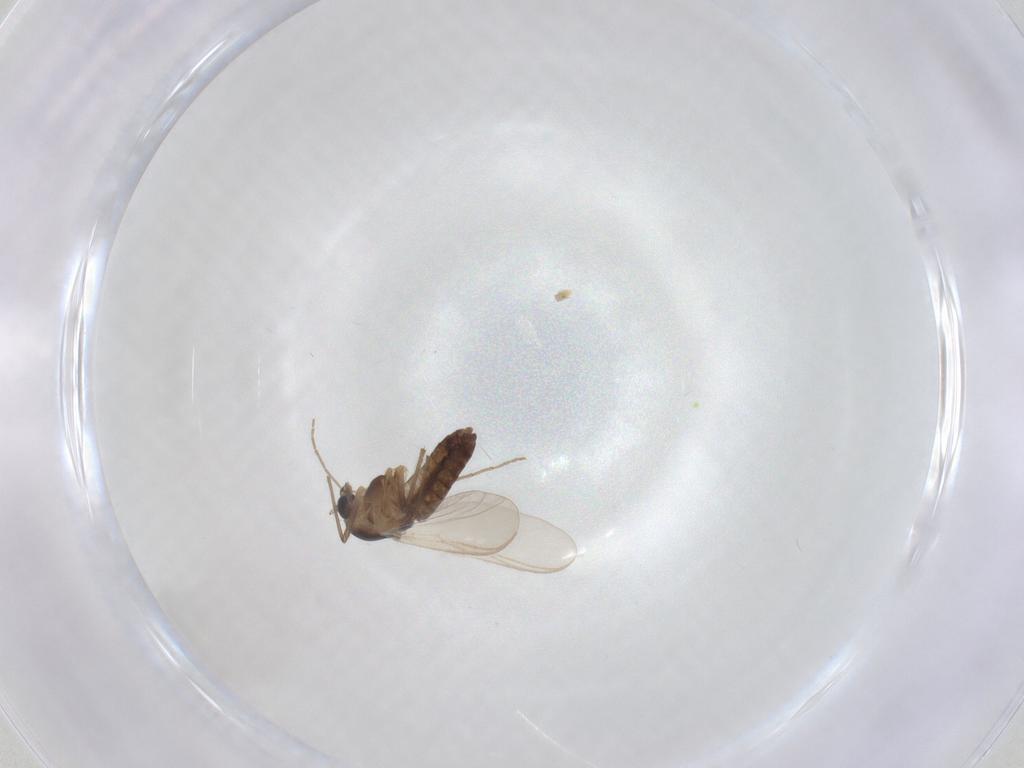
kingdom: Animalia
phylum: Arthropoda
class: Insecta
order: Diptera
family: Chironomidae
